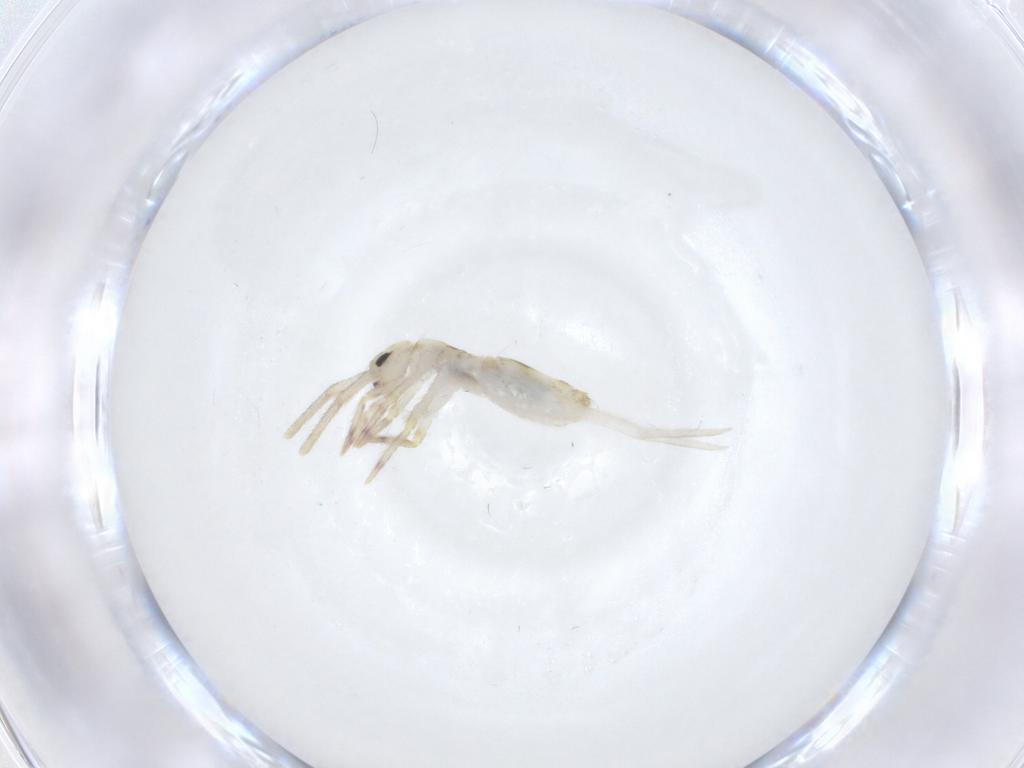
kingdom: Animalia
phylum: Arthropoda
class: Collembola
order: Entomobryomorpha
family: Entomobryidae
